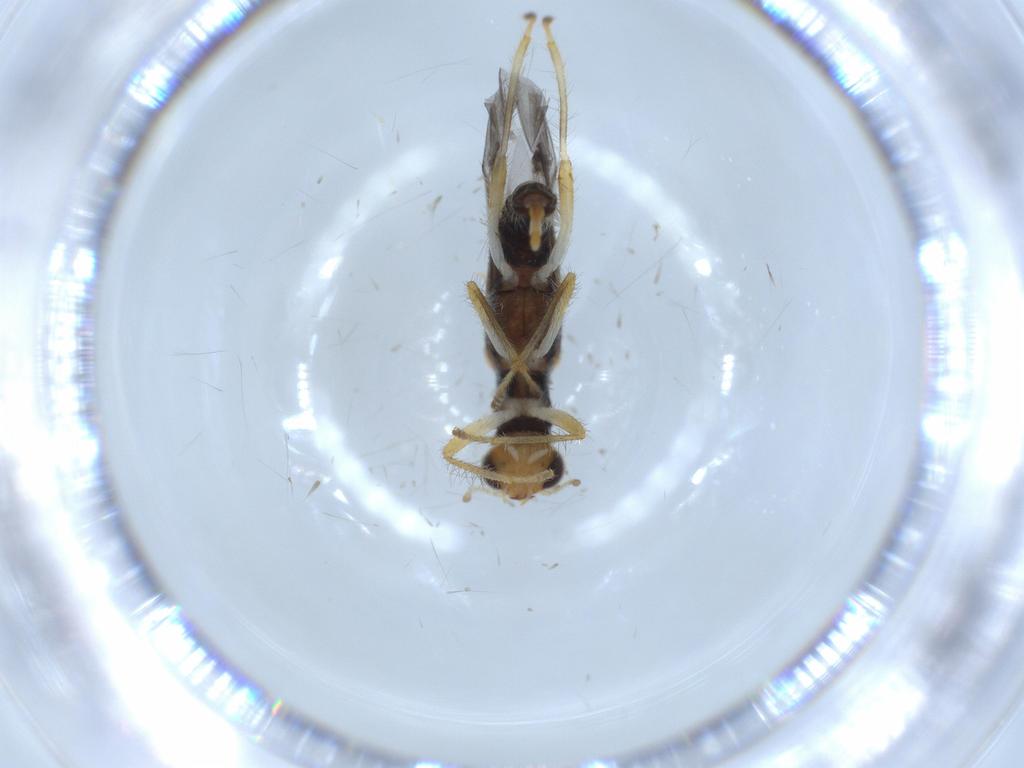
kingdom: Animalia
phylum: Arthropoda
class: Insecta
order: Coleoptera
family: Cleridae
